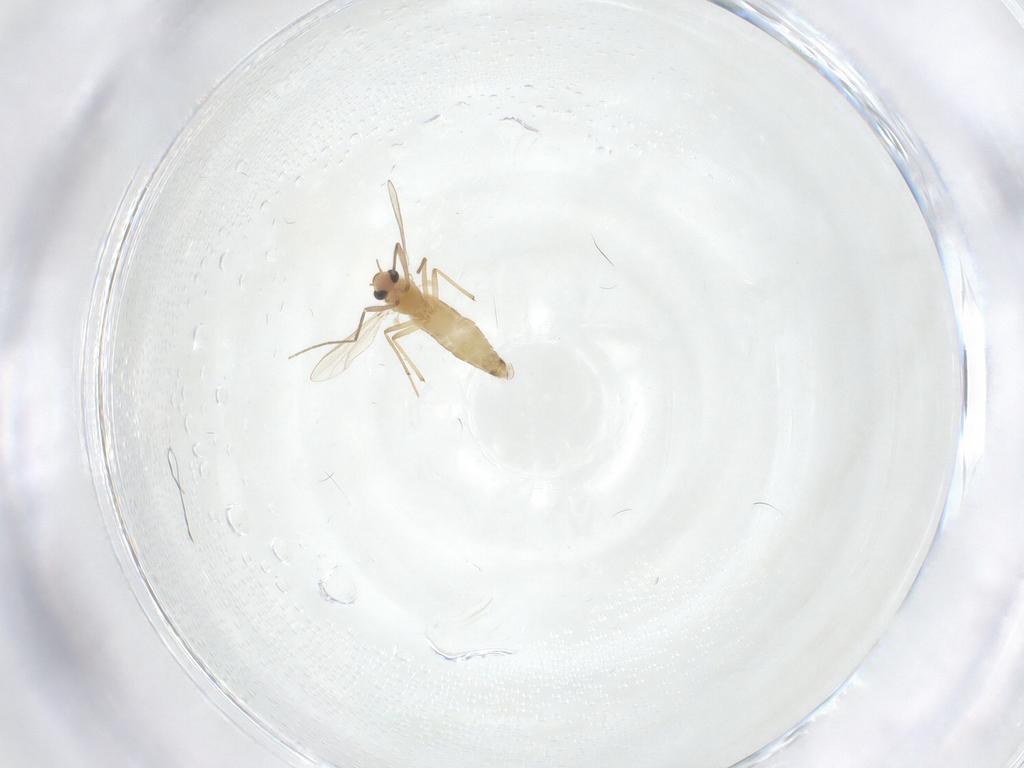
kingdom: Animalia
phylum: Arthropoda
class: Insecta
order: Diptera
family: Chironomidae
